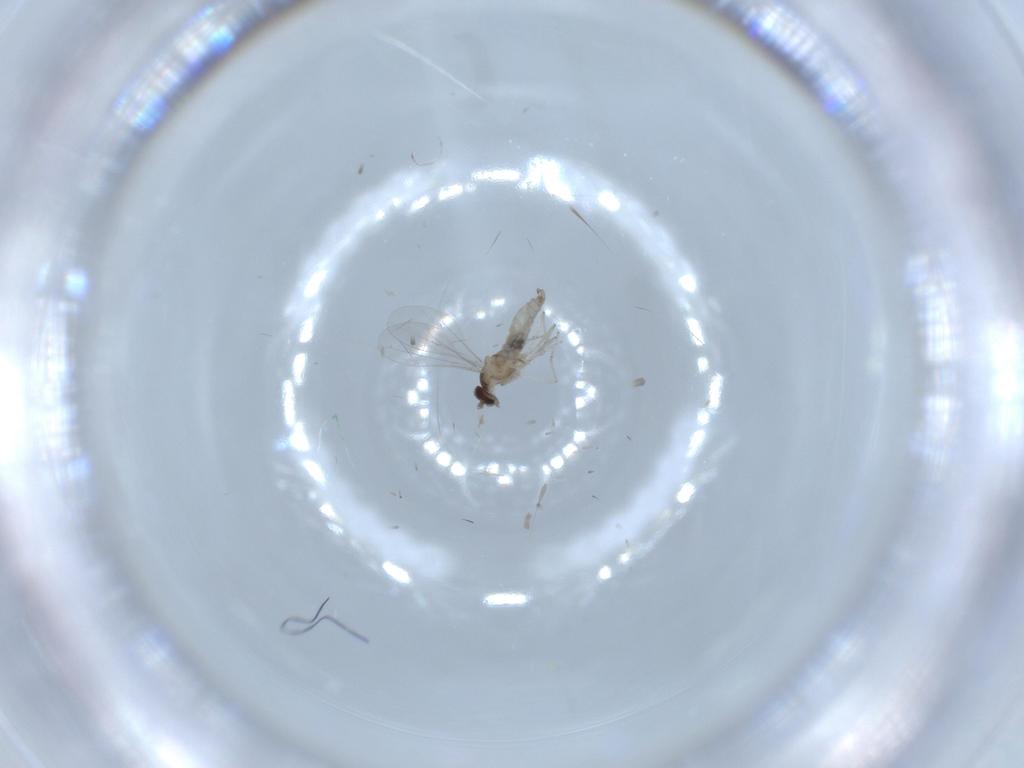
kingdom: Animalia
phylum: Arthropoda
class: Insecta
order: Diptera
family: Cecidomyiidae
